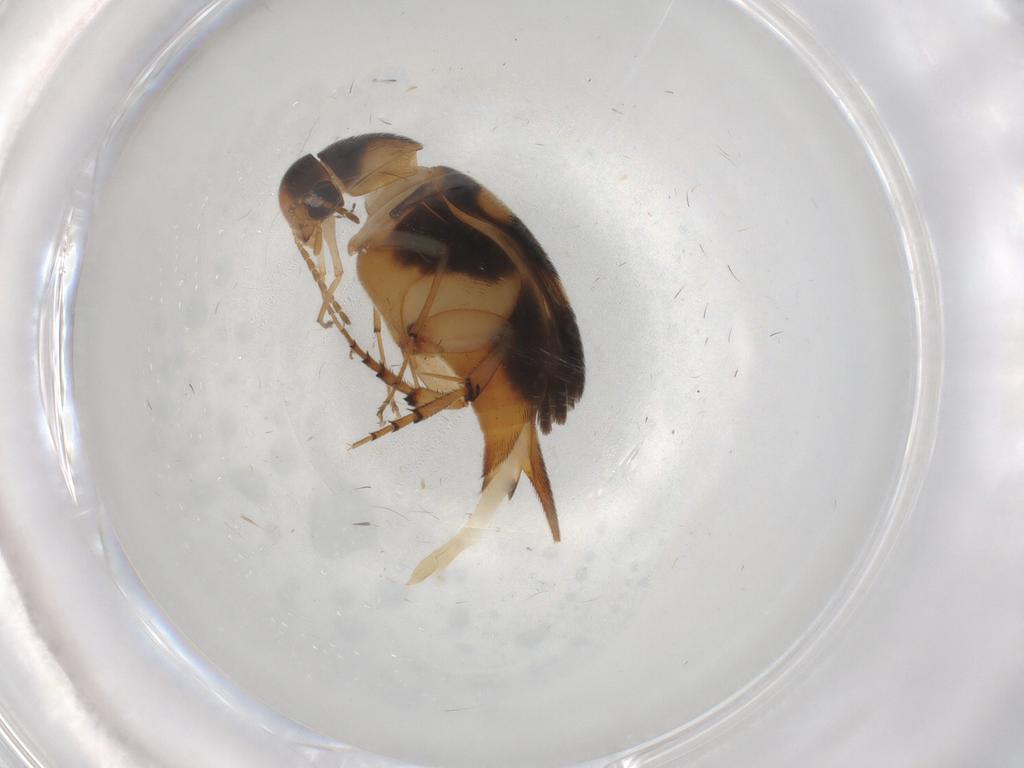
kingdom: Animalia
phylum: Arthropoda
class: Insecta
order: Coleoptera
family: Mordellidae
